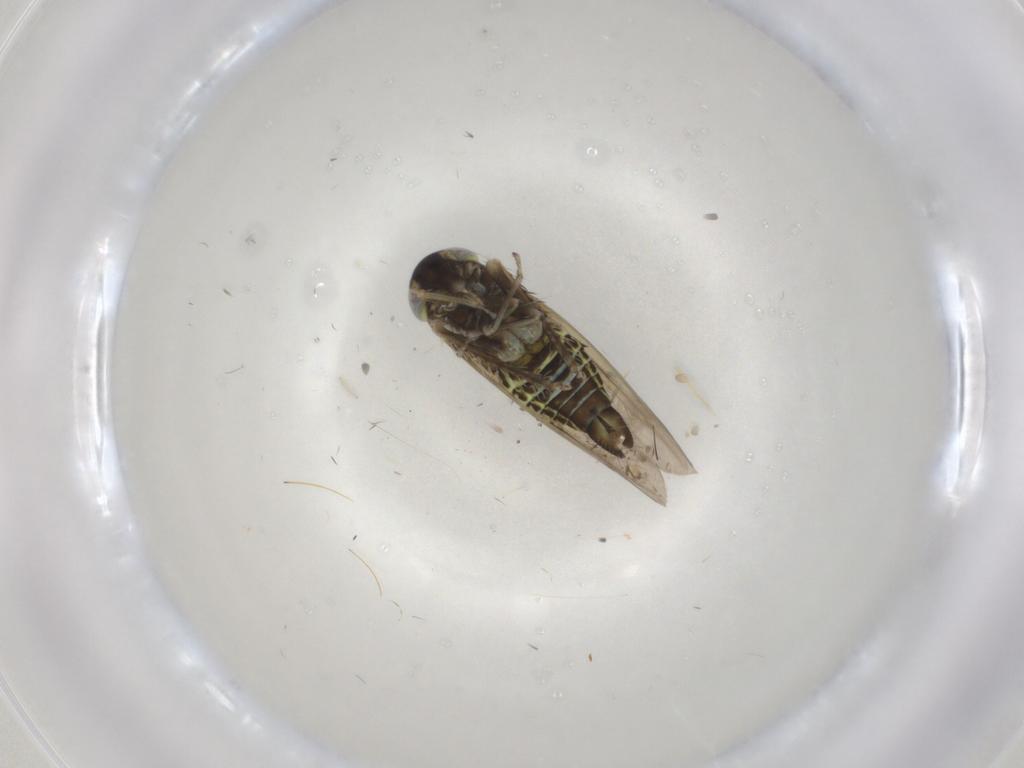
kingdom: Animalia
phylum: Arthropoda
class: Insecta
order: Hemiptera
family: Cicadellidae
